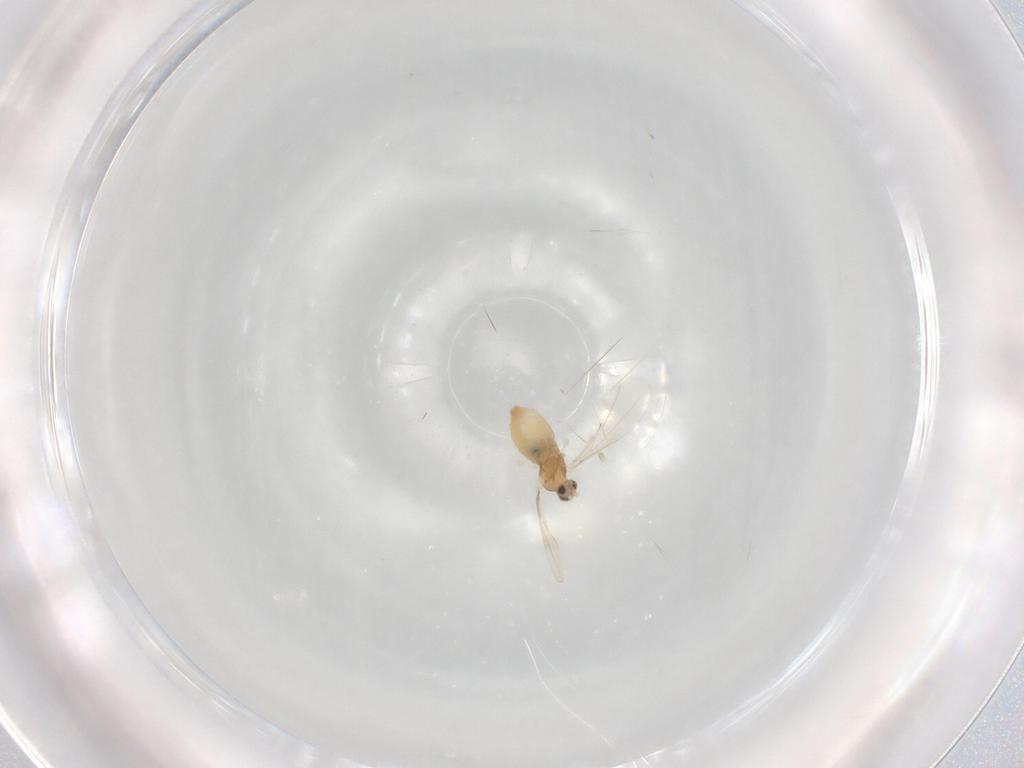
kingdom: Animalia
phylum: Arthropoda
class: Insecta
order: Diptera
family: Cecidomyiidae
